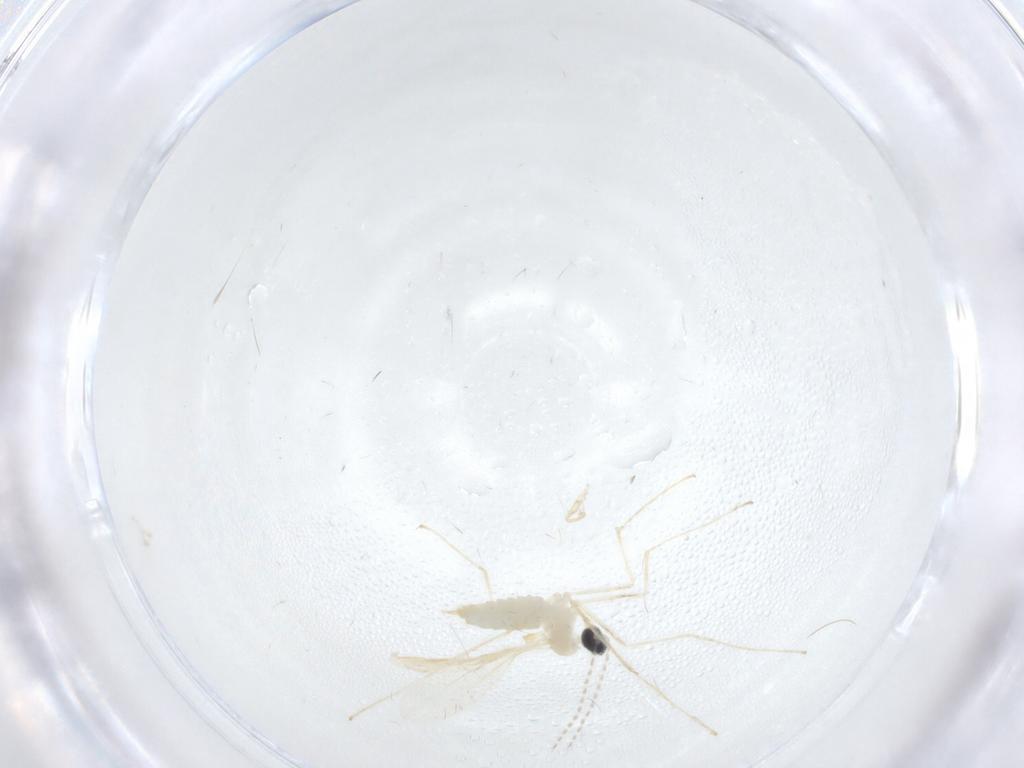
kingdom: Animalia
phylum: Arthropoda
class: Insecta
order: Diptera
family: Cecidomyiidae
